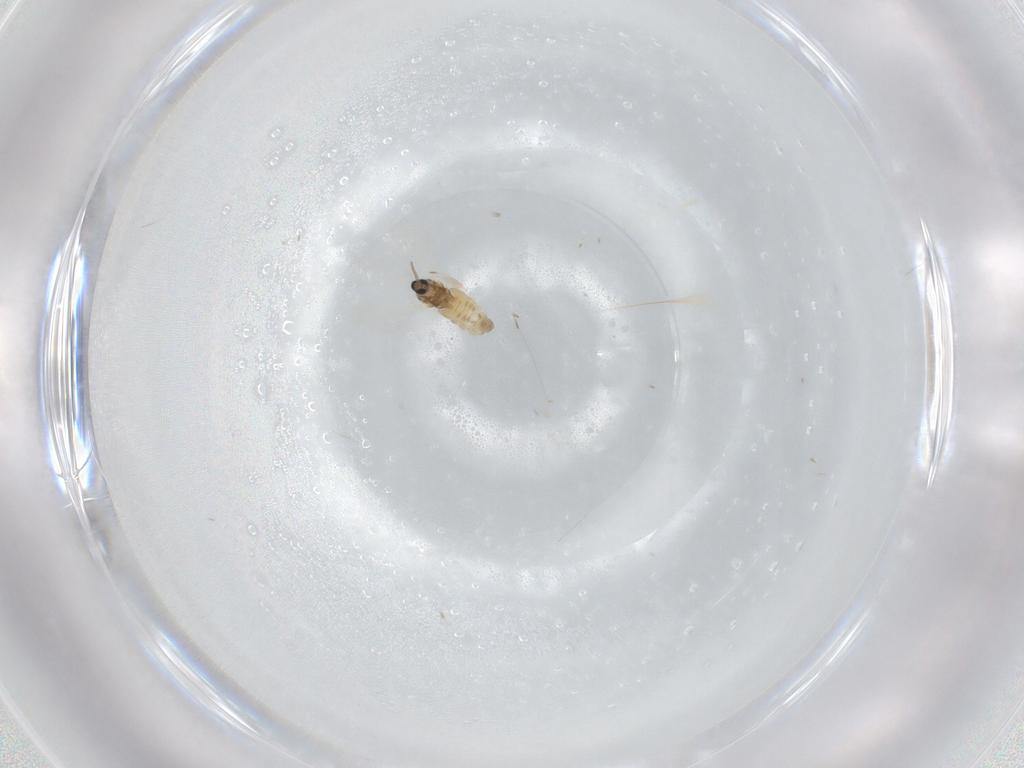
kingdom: Animalia
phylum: Arthropoda
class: Insecta
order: Diptera
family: Cecidomyiidae
